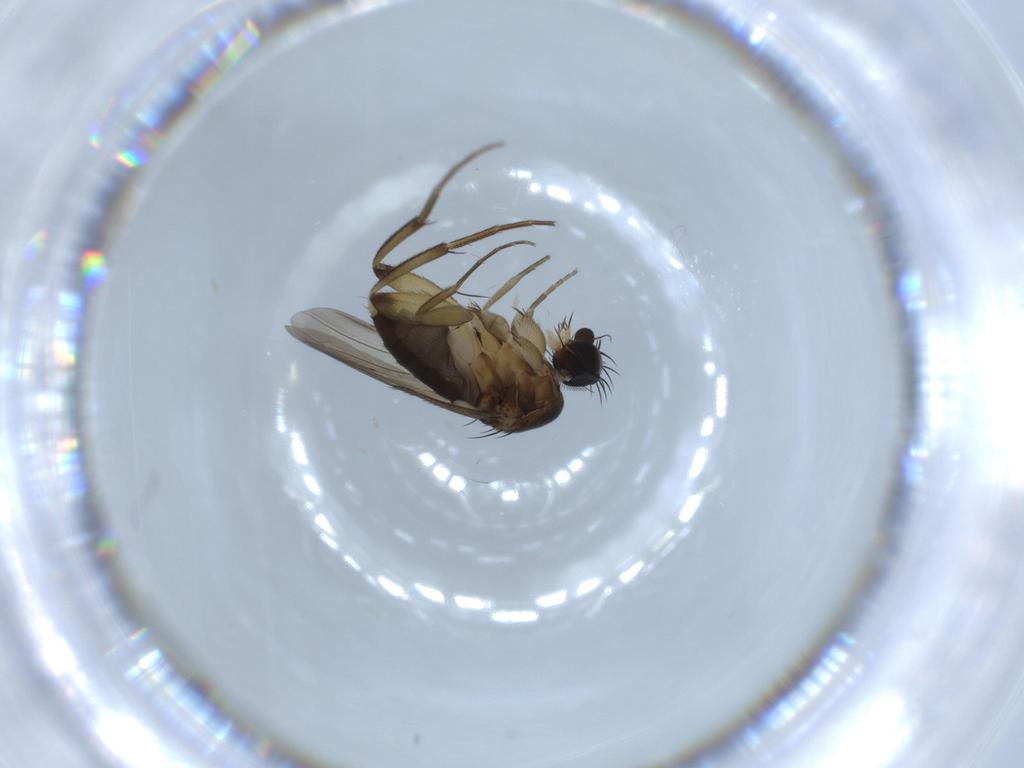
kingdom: Animalia
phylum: Arthropoda
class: Insecta
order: Diptera
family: Phoridae
